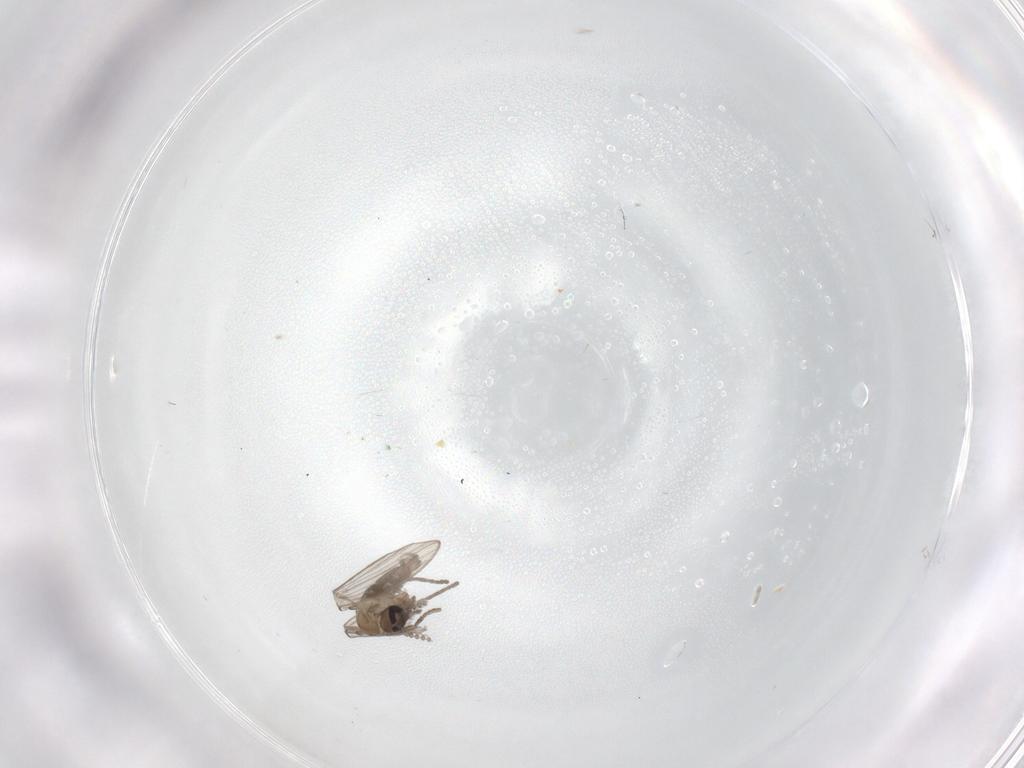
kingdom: Animalia
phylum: Arthropoda
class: Insecta
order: Diptera
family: Psychodidae
